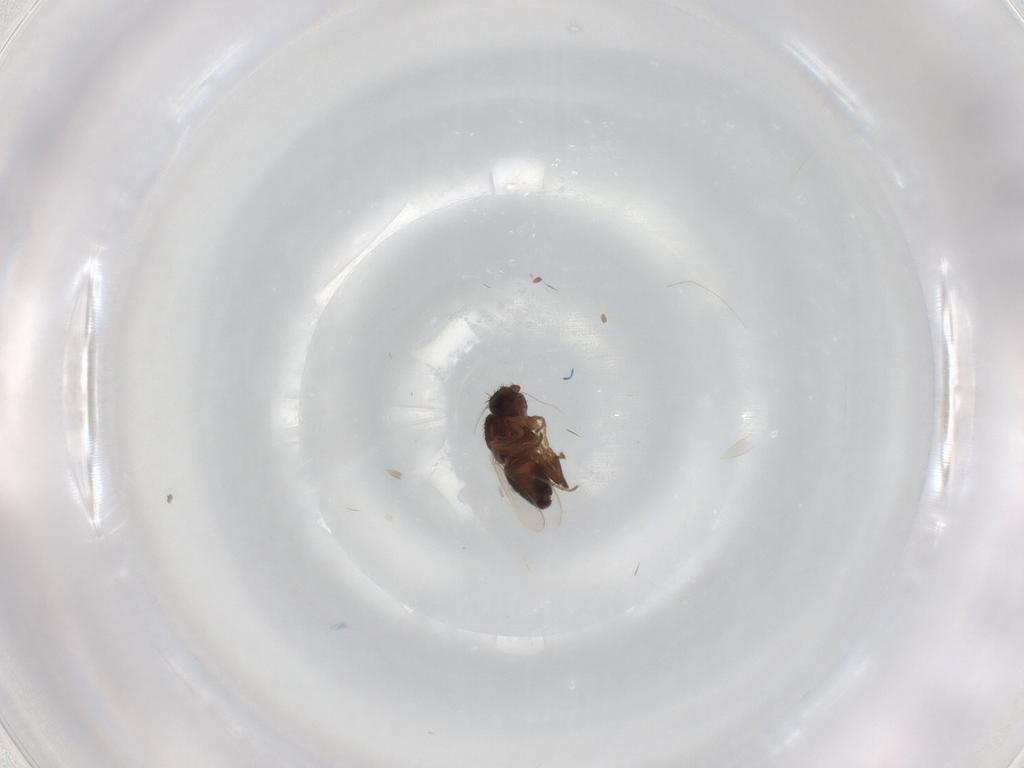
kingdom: Animalia
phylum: Arthropoda
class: Insecta
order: Diptera
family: Sphaeroceridae
